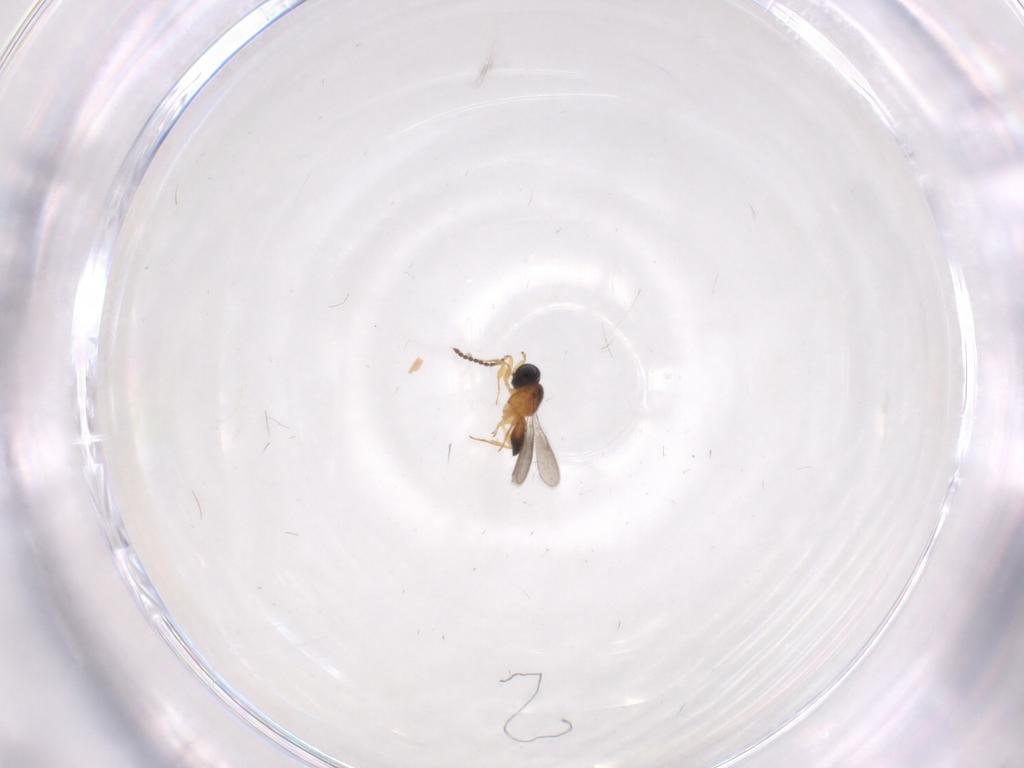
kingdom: Animalia
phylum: Arthropoda
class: Insecta
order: Hymenoptera
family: Scelionidae
